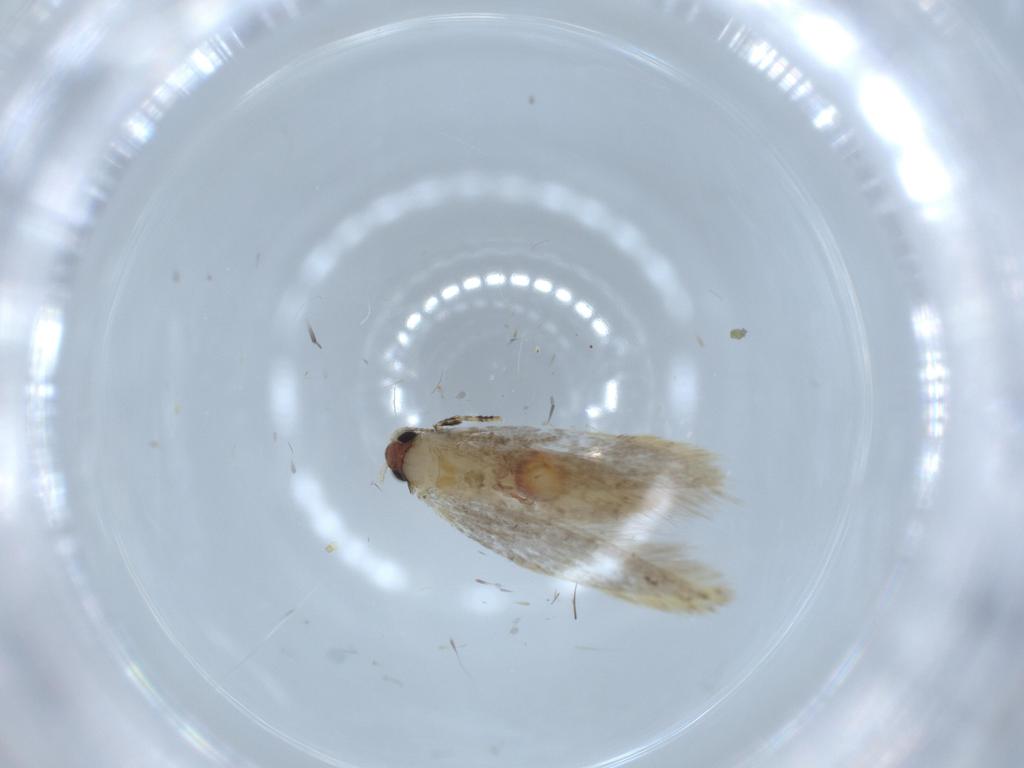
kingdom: Animalia
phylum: Arthropoda
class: Insecta
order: Lepidoptera
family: Tineidae
